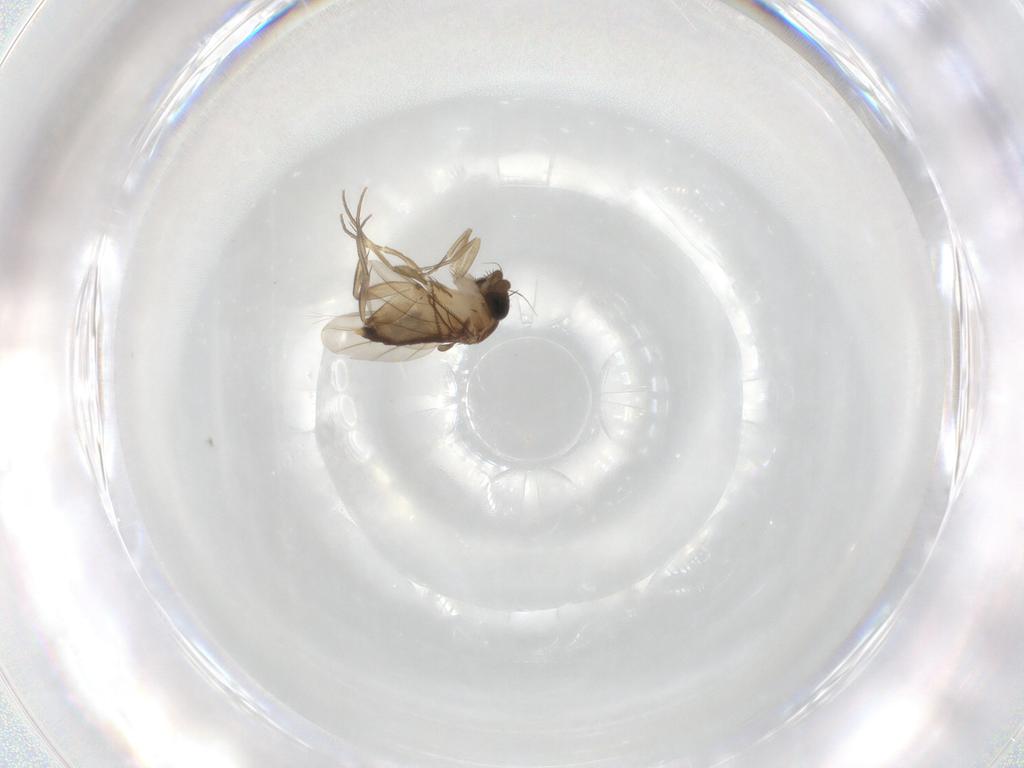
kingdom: Animalia
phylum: Arthropoda
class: Insecta
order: Diptera
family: Phoridae
